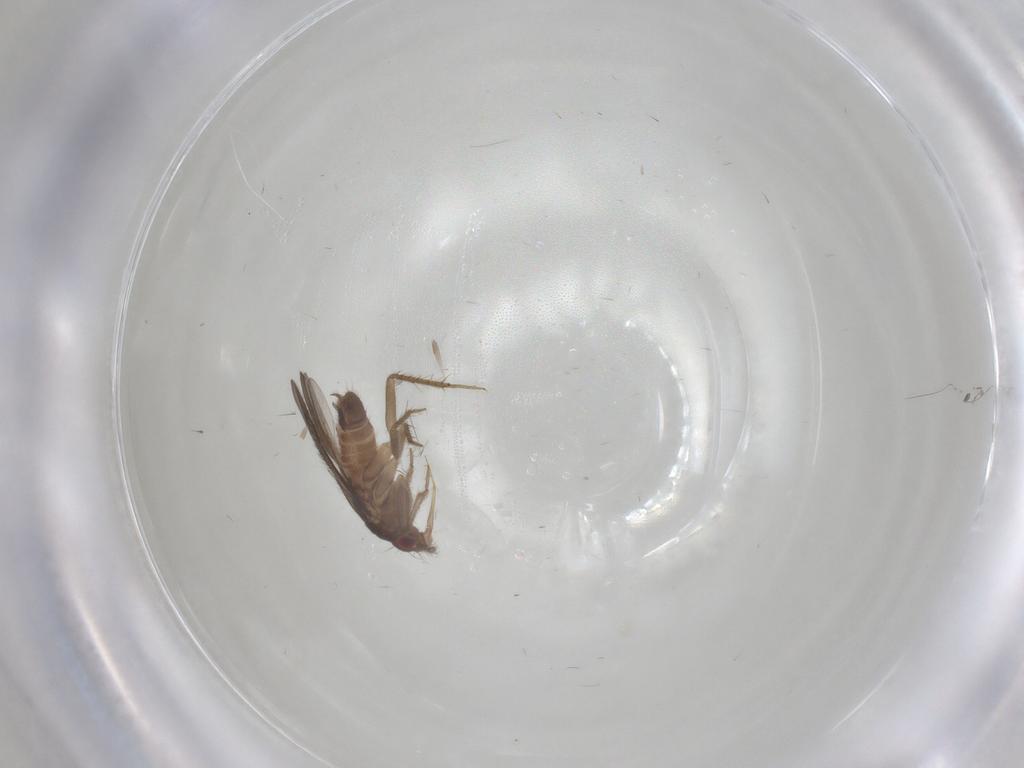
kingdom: Animalia
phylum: Arthropoda
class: Insecta
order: Hemiptera
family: Ceratocombidae
